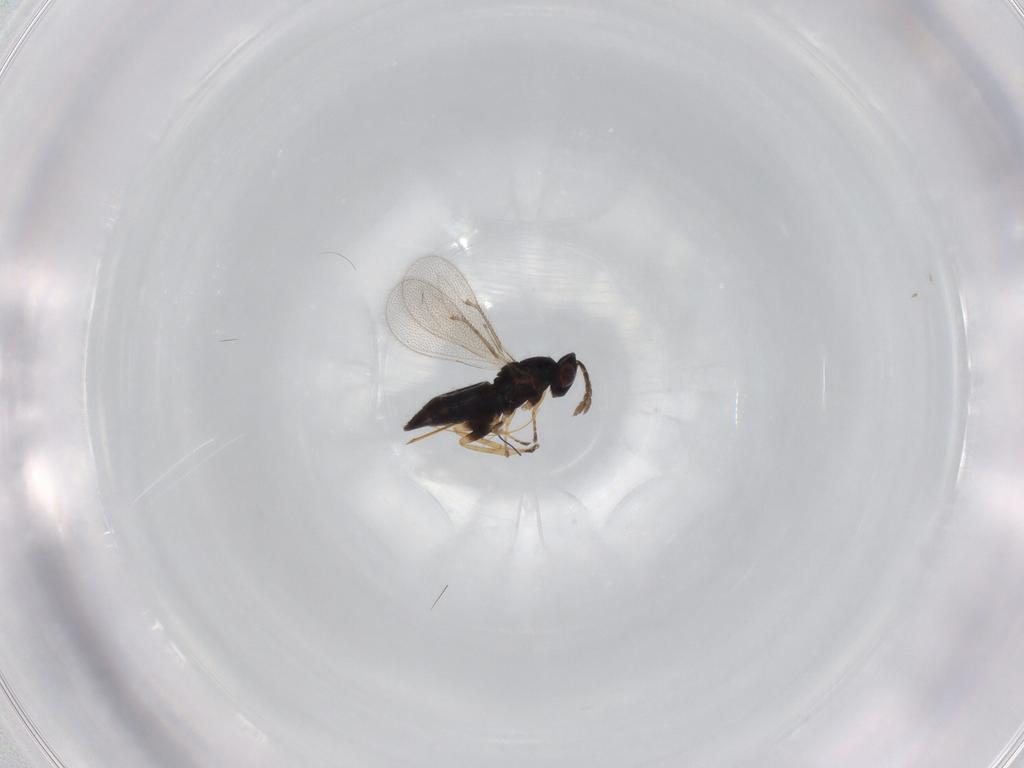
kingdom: Animalia
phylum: Arthropoda
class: Insecta
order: Hymenoptera
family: Eulophidae
